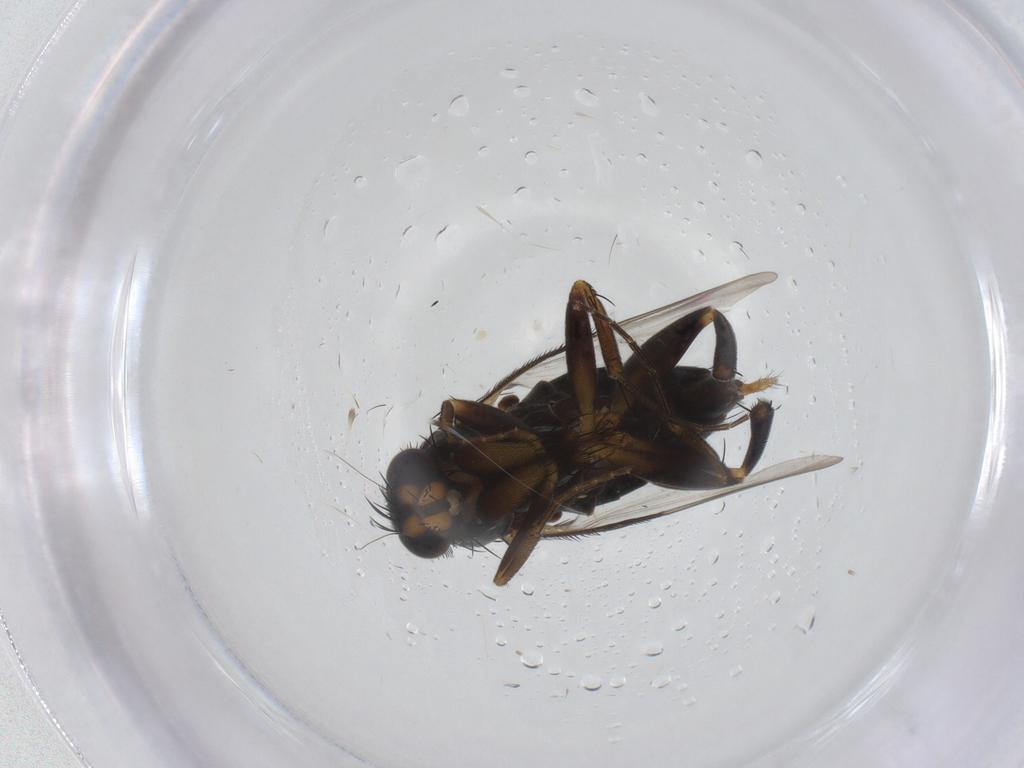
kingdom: Animalia
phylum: Arthropoda
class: Insecta
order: Diptera
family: Phoridae
